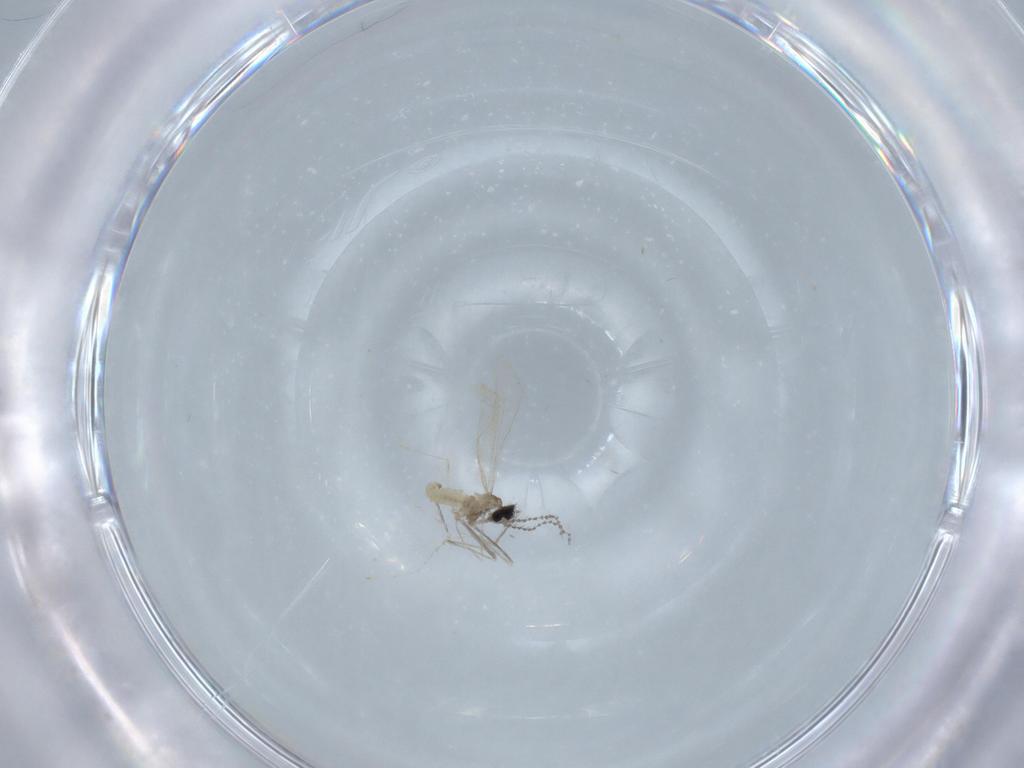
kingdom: Animalia
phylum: Arthropoda
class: Insecta
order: Diptera
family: Cecidomyiidae
